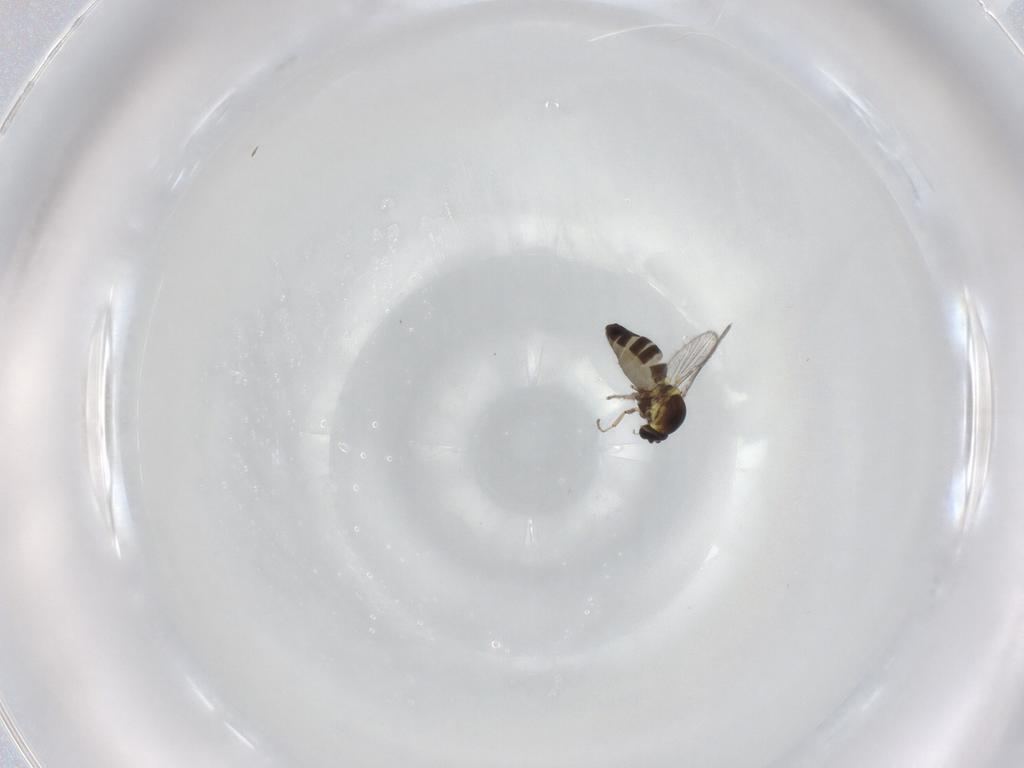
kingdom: Animalia
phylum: Arthropoda
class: Insecta
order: Diptera
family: Ceratopogonidae
